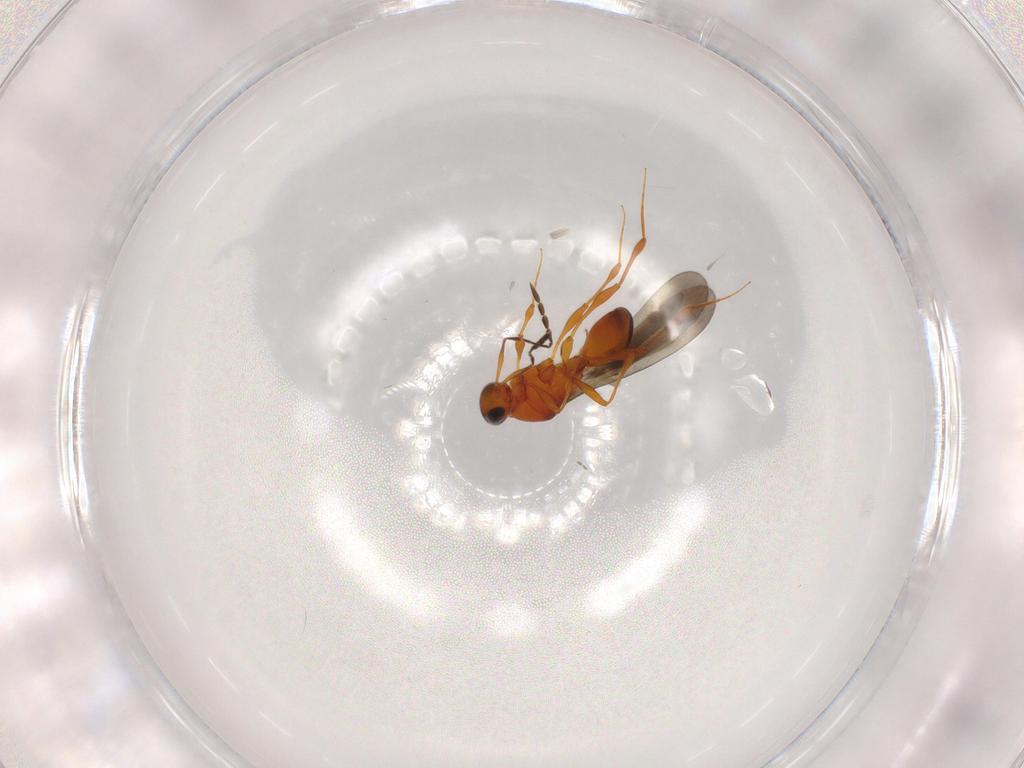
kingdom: Animalia
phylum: Arthropoda
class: Insecta
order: Hymenoptera
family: Platygastridae
